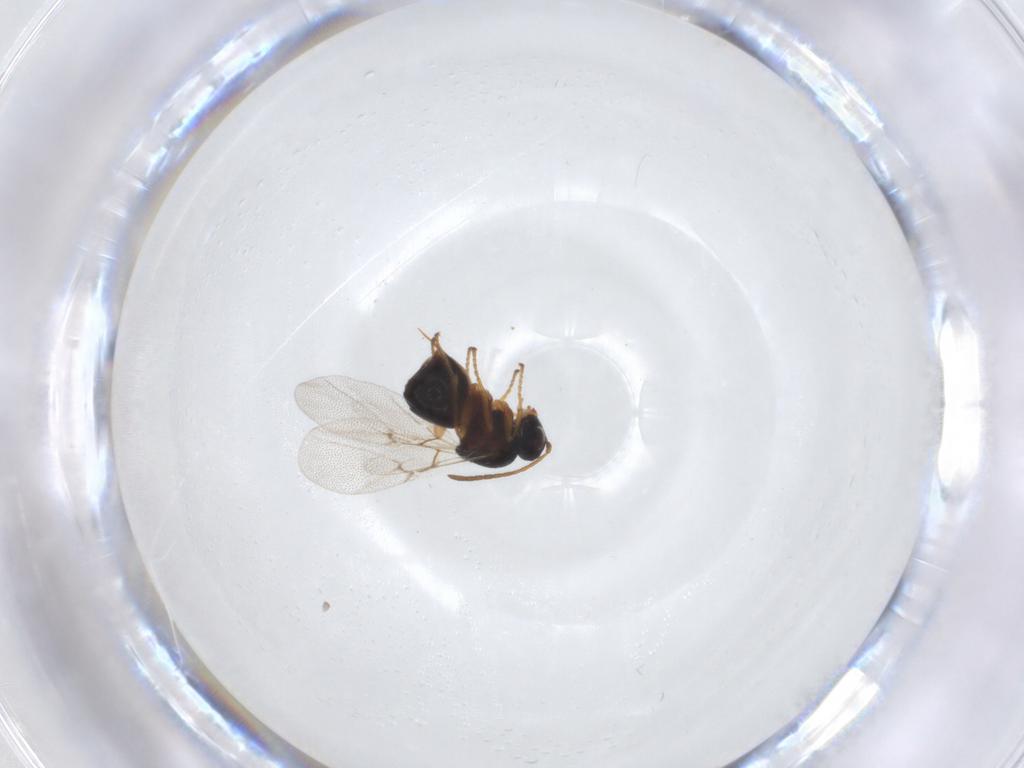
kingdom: Animalia
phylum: Arthropoda
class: Insecta
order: Hymenoptera
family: Cynipidae
